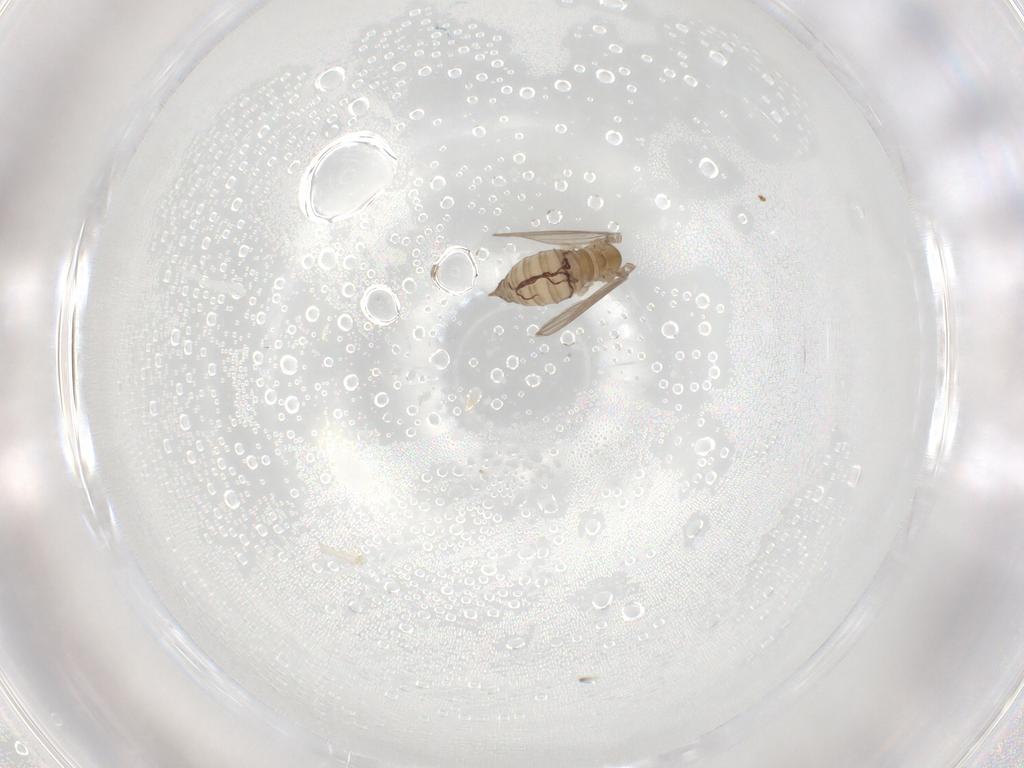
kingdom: Animalia
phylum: Arthropoda
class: Insecta
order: Diptera
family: Psychodidae
